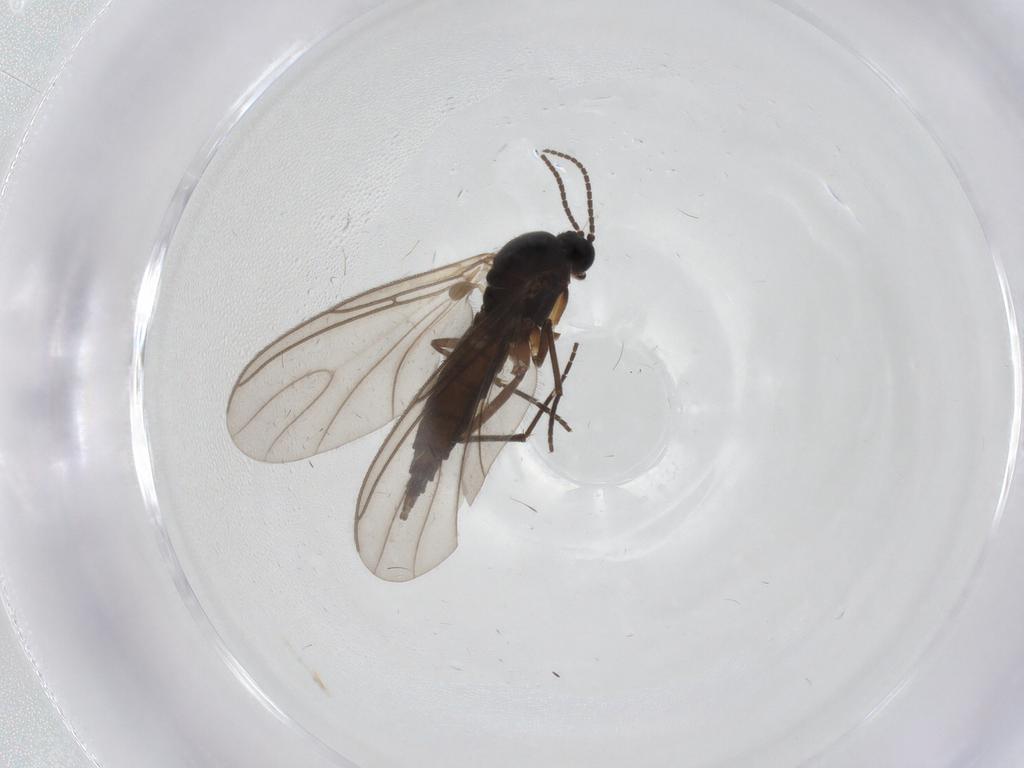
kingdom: Animalia
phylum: Arthropoda
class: Insecta
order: Diptera
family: Sciaridae
